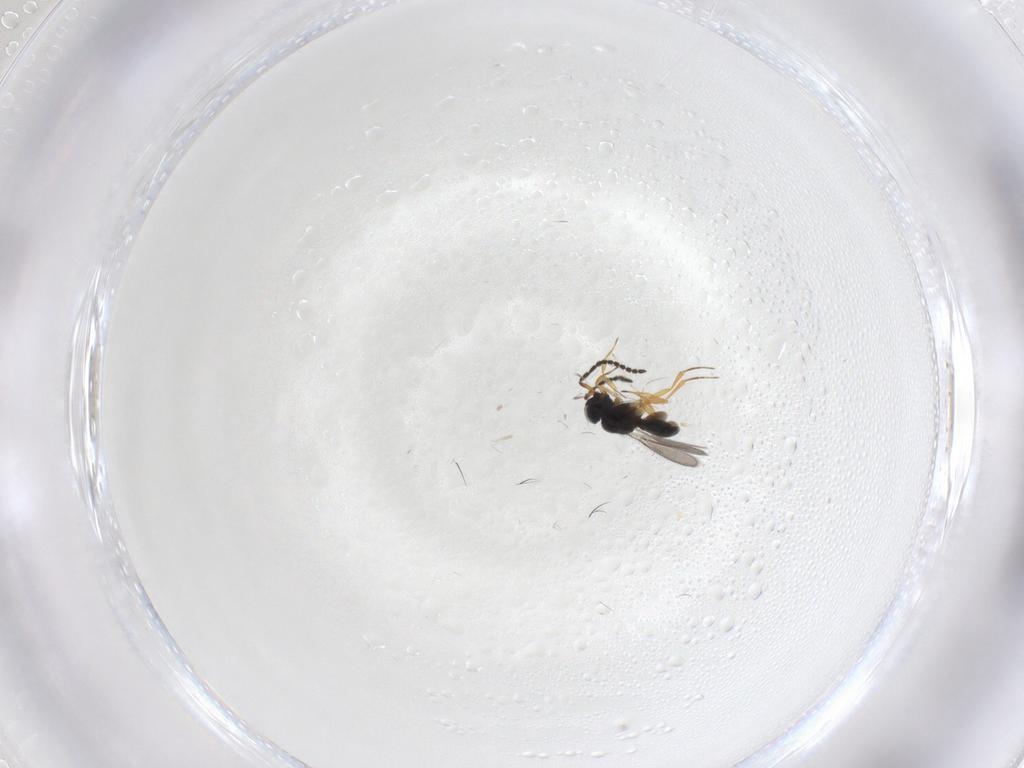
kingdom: Animalia
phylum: Arthropoda
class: Insecta
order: Hymenoptera
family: Scelionidae
